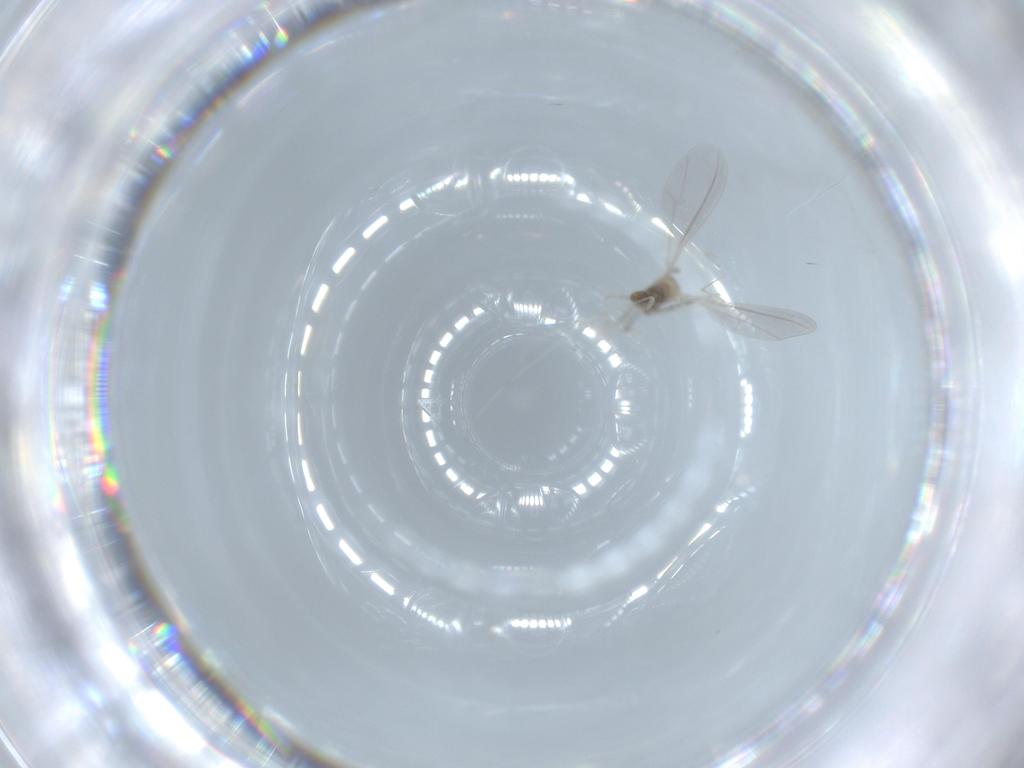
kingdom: Animalia
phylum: Arthropoda
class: Insecta
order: Diptera
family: Cecidomyiidae
